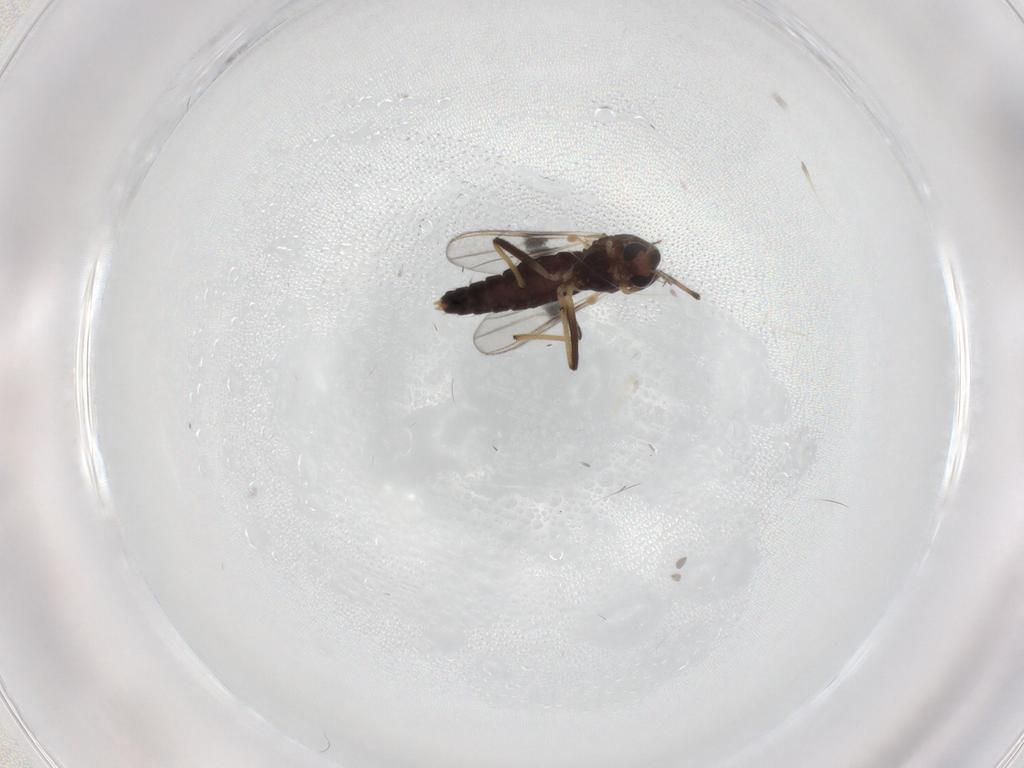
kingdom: Animalia
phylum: Arthropoda
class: Insecta
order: Diptera
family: Chironomidae
